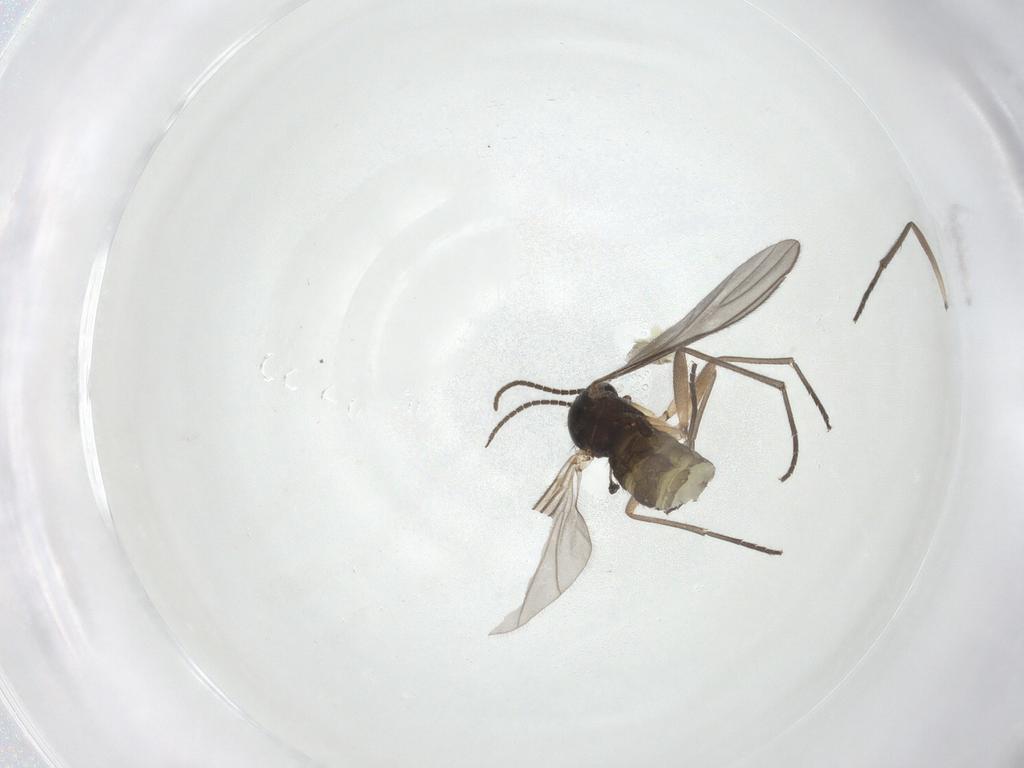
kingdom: Animalia
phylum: Arthropoda
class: Insecta
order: Diptera
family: Sciaridae
